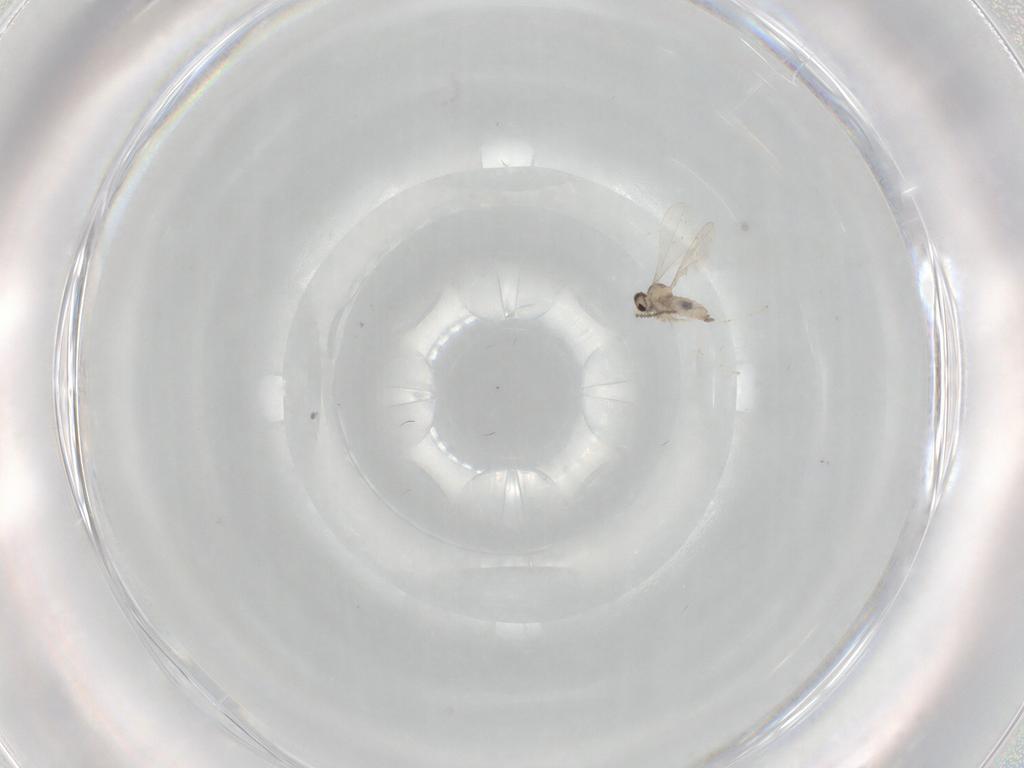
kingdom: Animalia
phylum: Arthropoda
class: Insecta
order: Diptera
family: Cecidomyiidae
